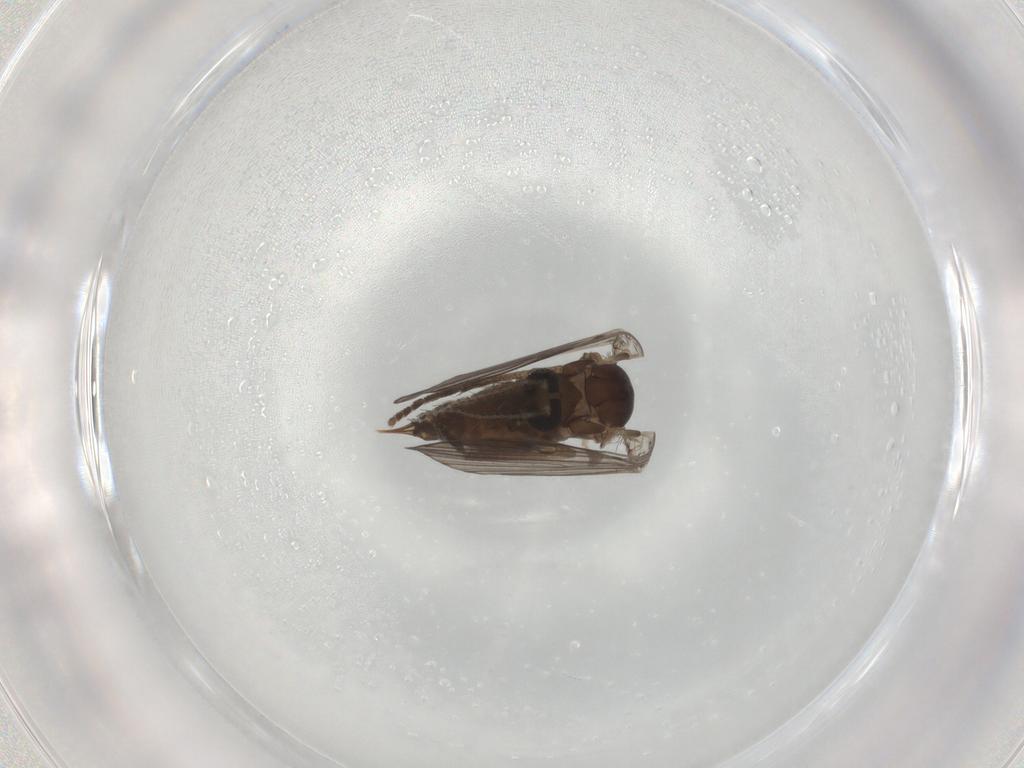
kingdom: Animalia
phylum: Arthropoda
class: Insecta
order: Diptera
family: Psychodidae
